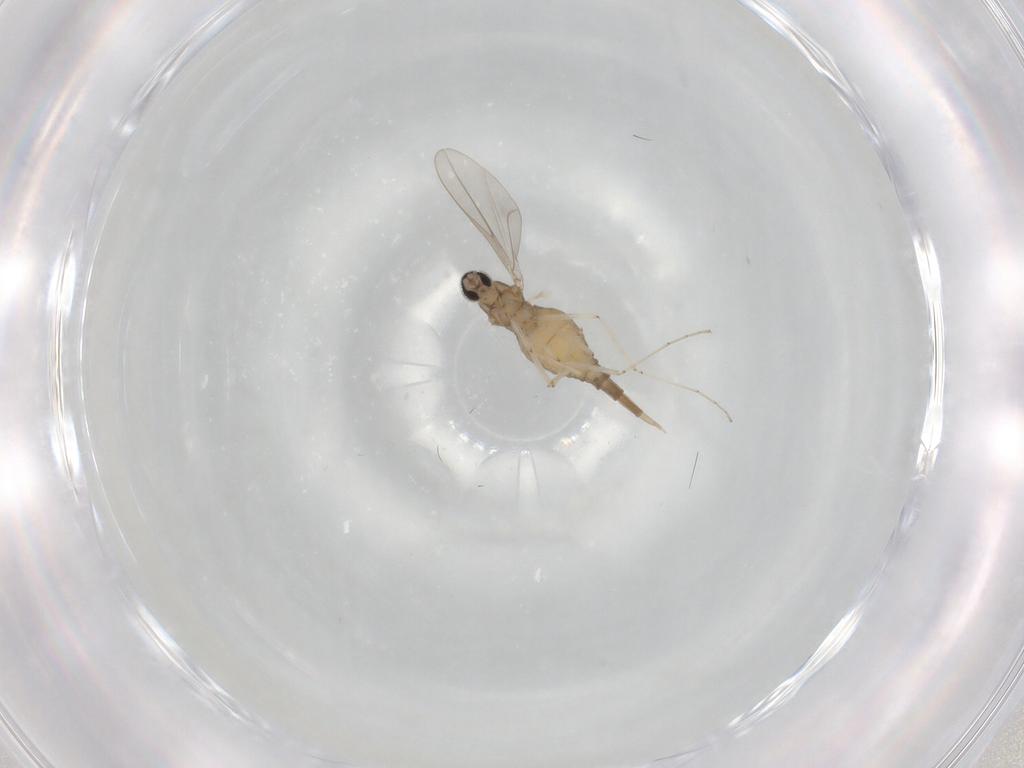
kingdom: Animalia
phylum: Arthropoda
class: Insecta
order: Diptera
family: Cecidomyiidae
